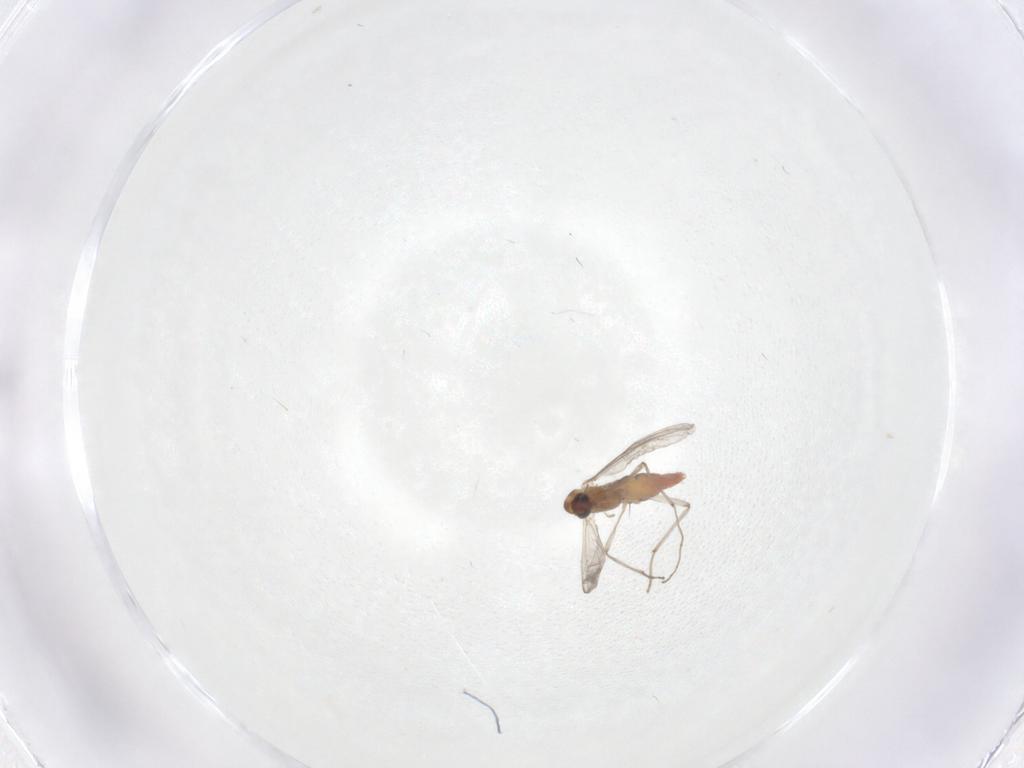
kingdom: Animalia
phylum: Arthropoda
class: Insecta
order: Diptera
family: Chironomidae
